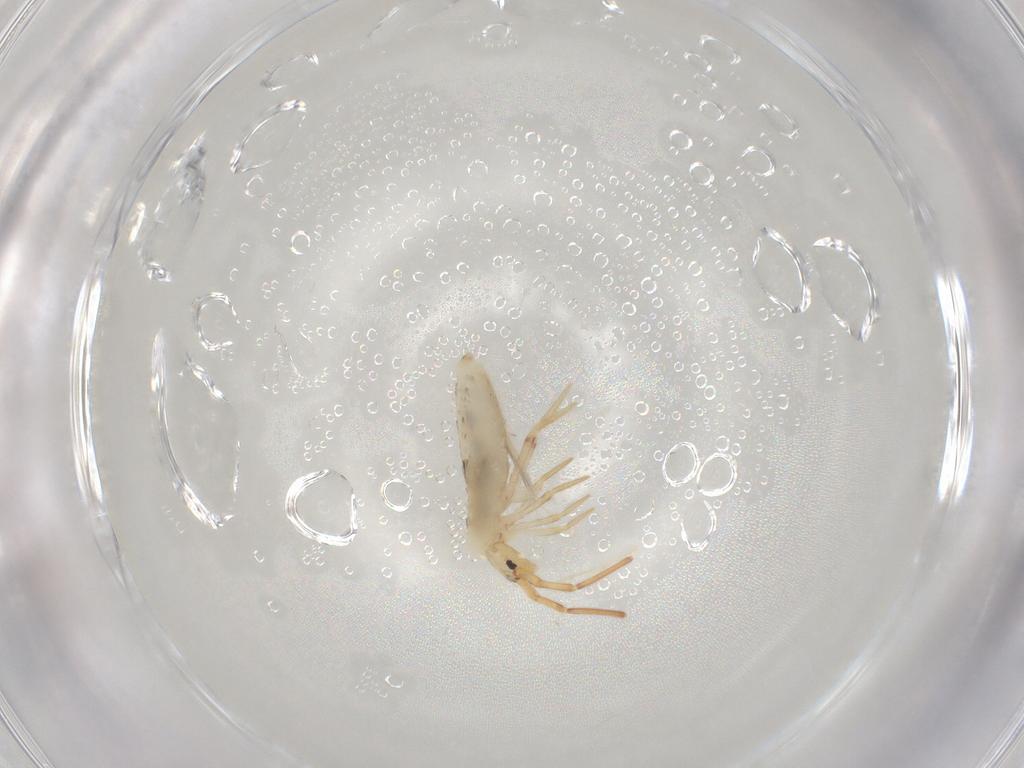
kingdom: Animalia
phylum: Arthropoda
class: Collembola
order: Entomobryomorpha
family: Entomobryidae
